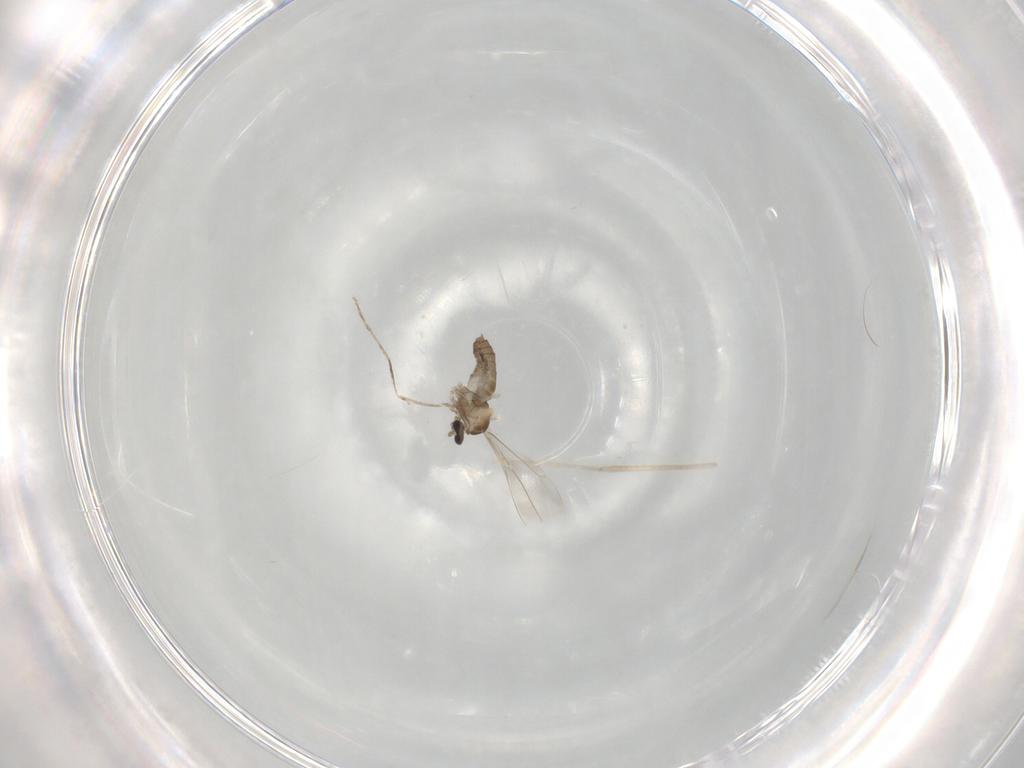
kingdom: Animalia
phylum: Arthropoda
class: Insecta
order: Diptera
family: Cecidomyiidae
